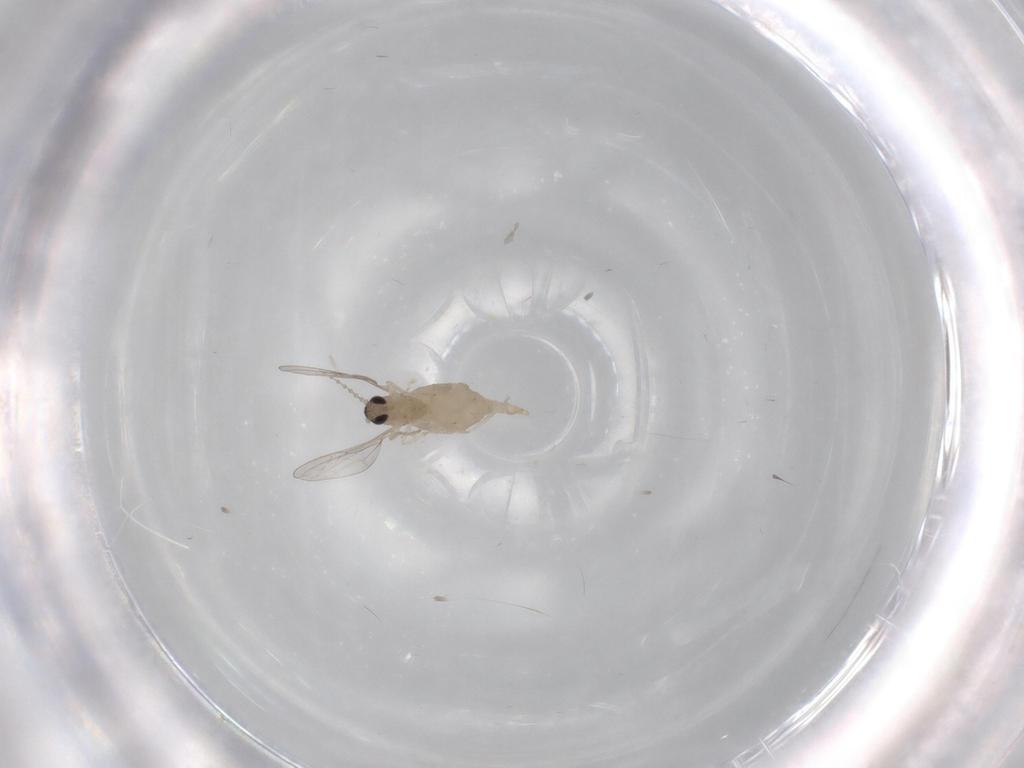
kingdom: Animalia
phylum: Arthropoda
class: Insecta
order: Diptera
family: Cecidomyiidae
